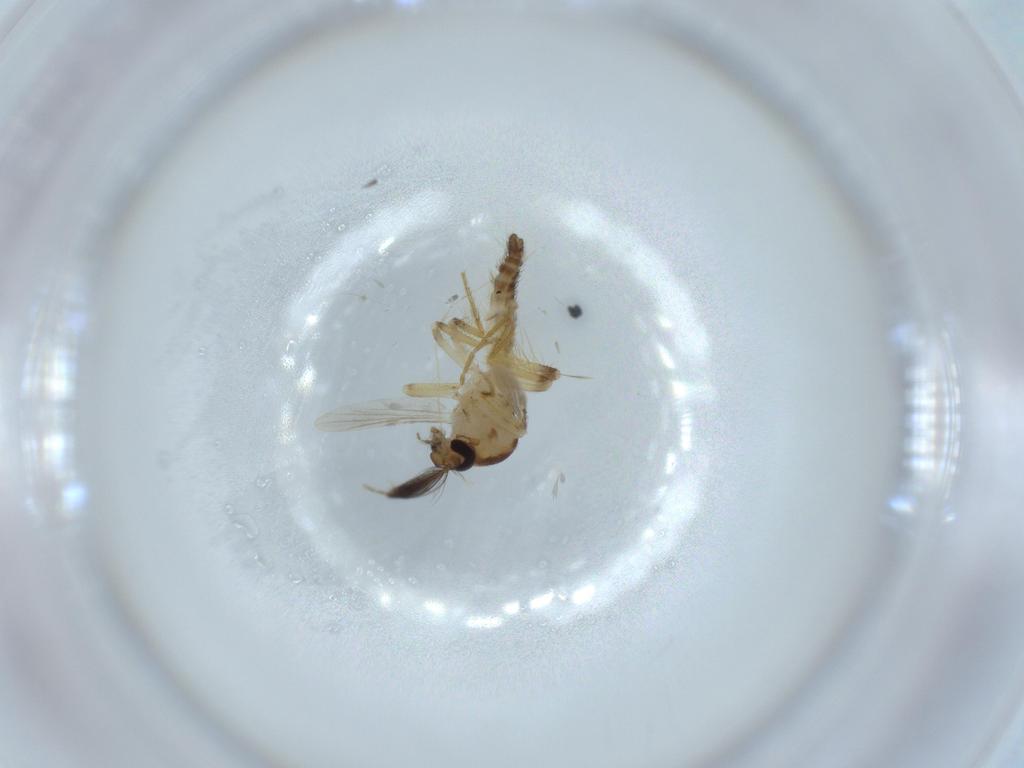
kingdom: Animalia
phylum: Arthropoda
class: Insecta
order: Diptera
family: Ceratopogonidae
